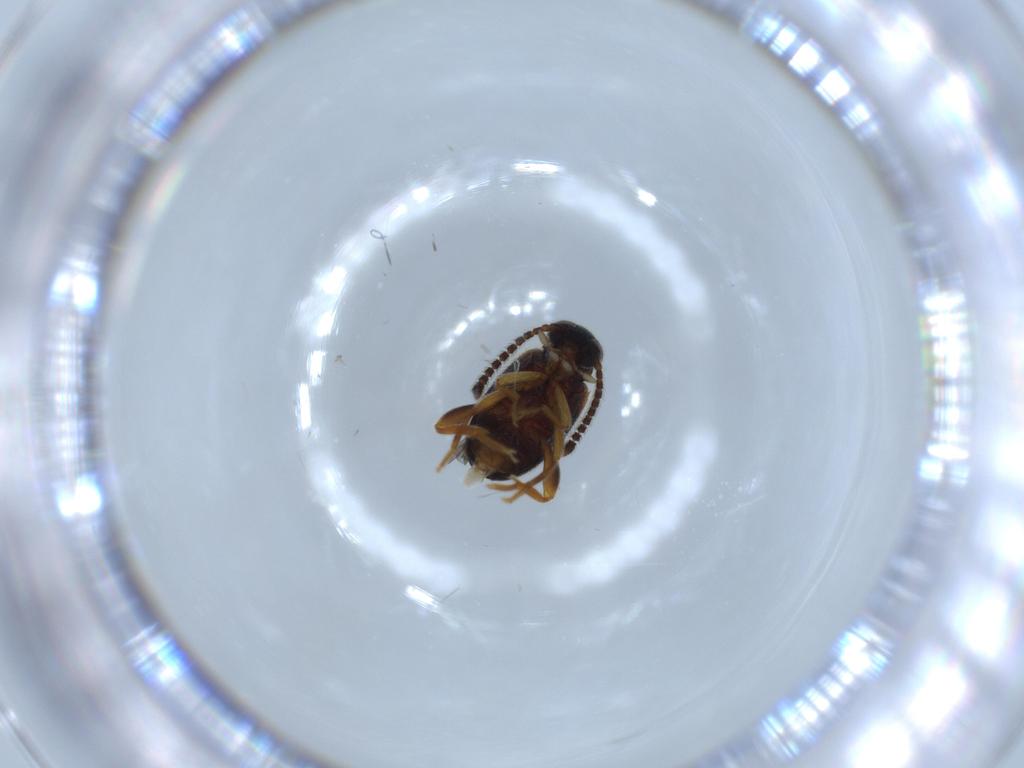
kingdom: Animalia
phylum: Arthropoda
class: Insecta
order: Coleoptera
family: Aderidae
